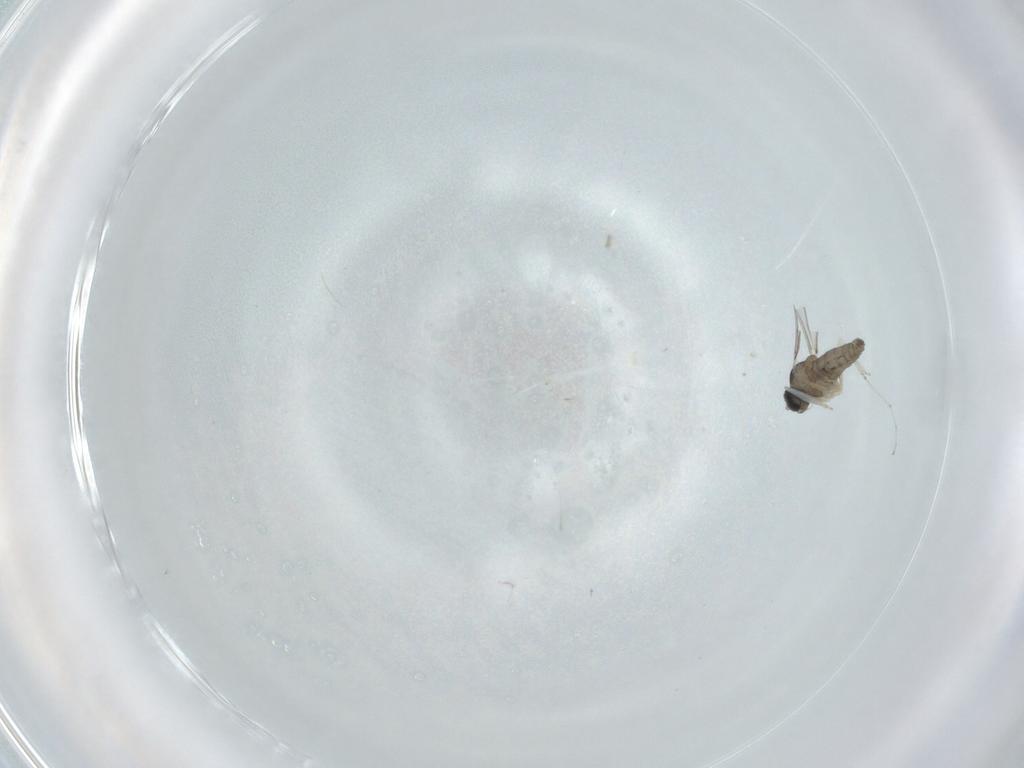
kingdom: Animalia
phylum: Arthropoda
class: Insecta
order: Diptera
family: Cecidomyiidae
